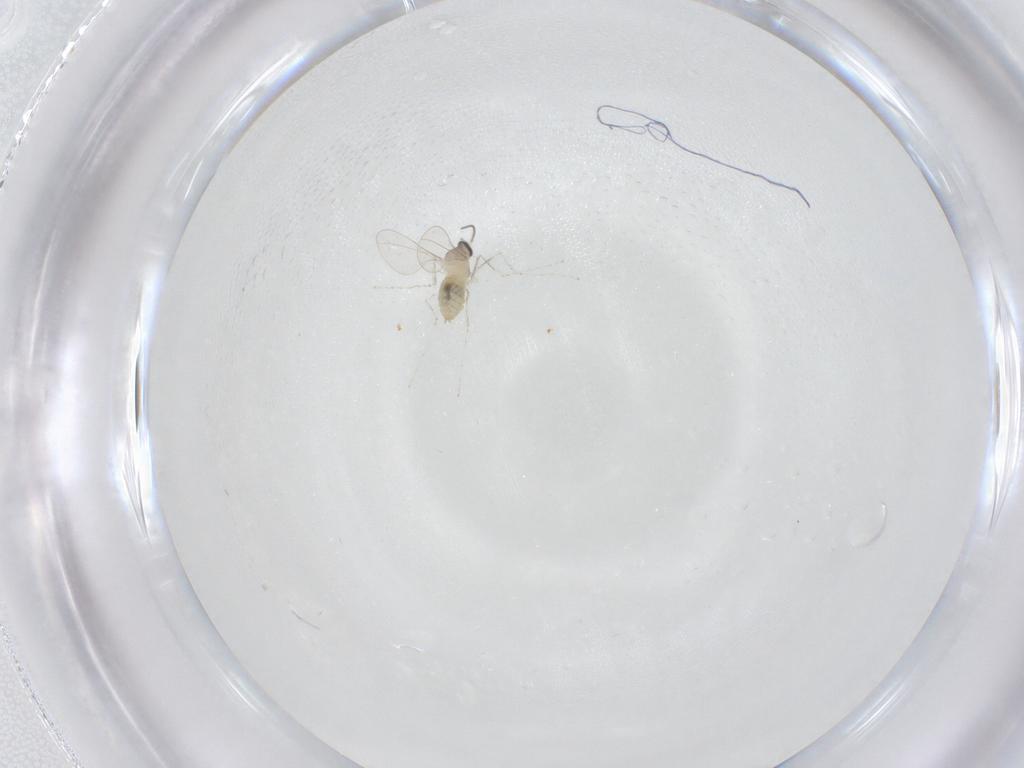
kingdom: Animalia
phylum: Arthropoda
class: Insecta
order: Diptera
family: Cecidomyiidae
